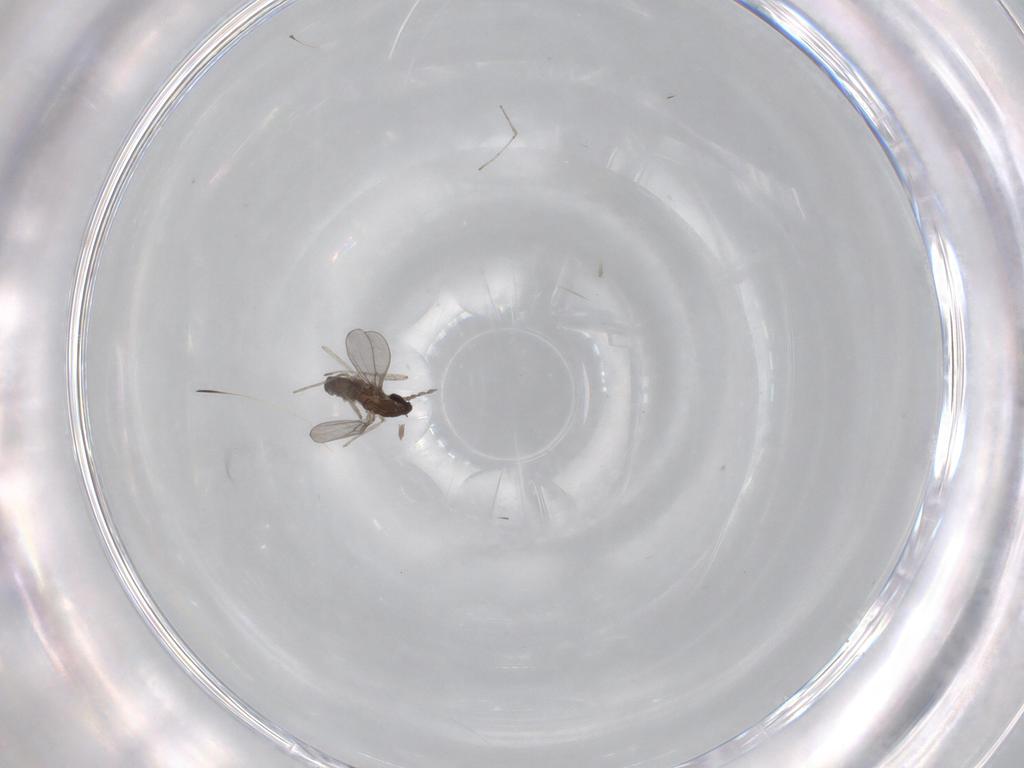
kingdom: Animalia
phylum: Arthropoda
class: Insecta
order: Diptera
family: Cecidomyiidae
